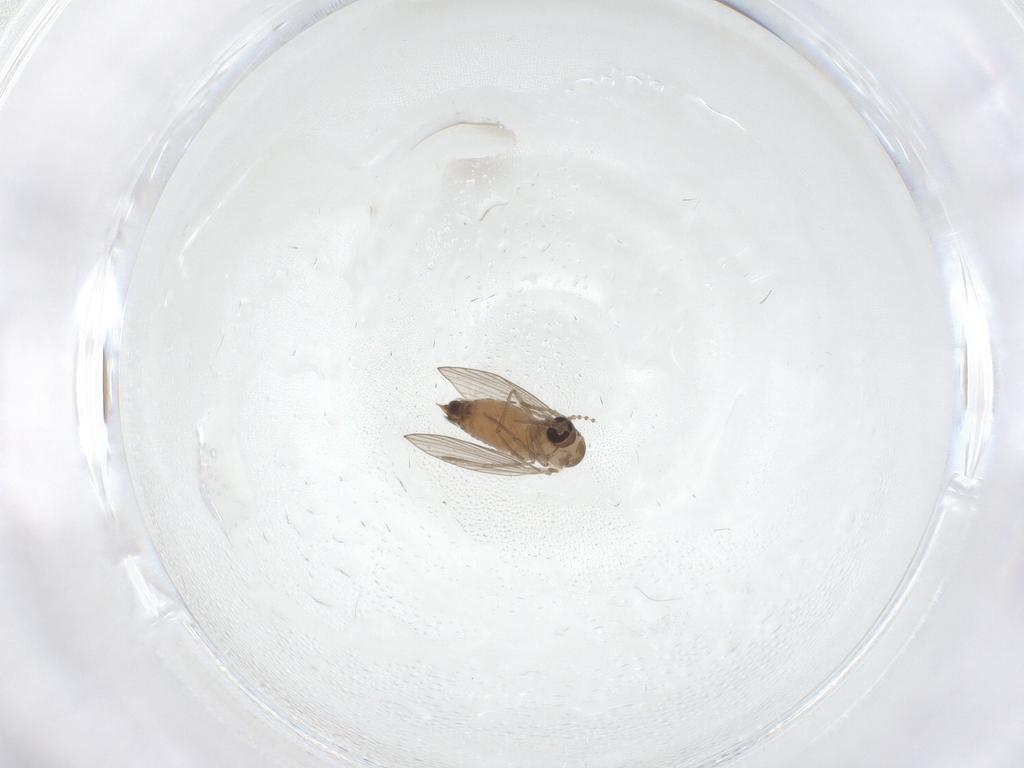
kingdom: Animalia
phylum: Arthropoda
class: Insecta
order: Diptera
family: Psychodidae
